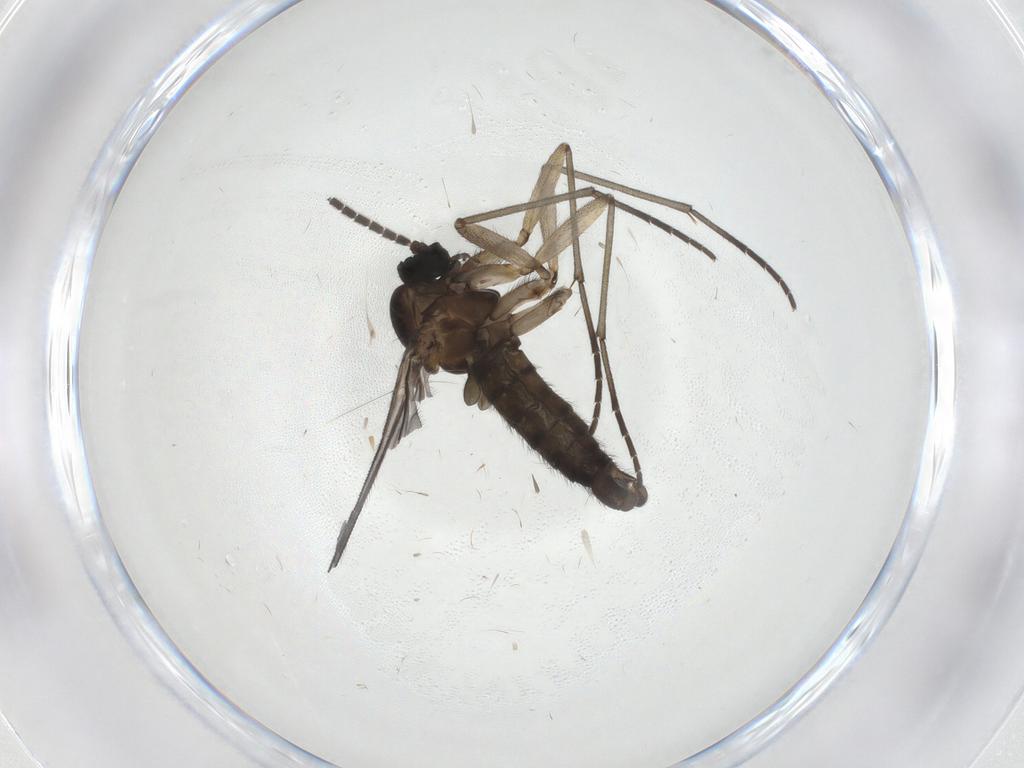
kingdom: Animalia
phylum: Arthropoda
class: Insecta
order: Diptera
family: Sciaridae
